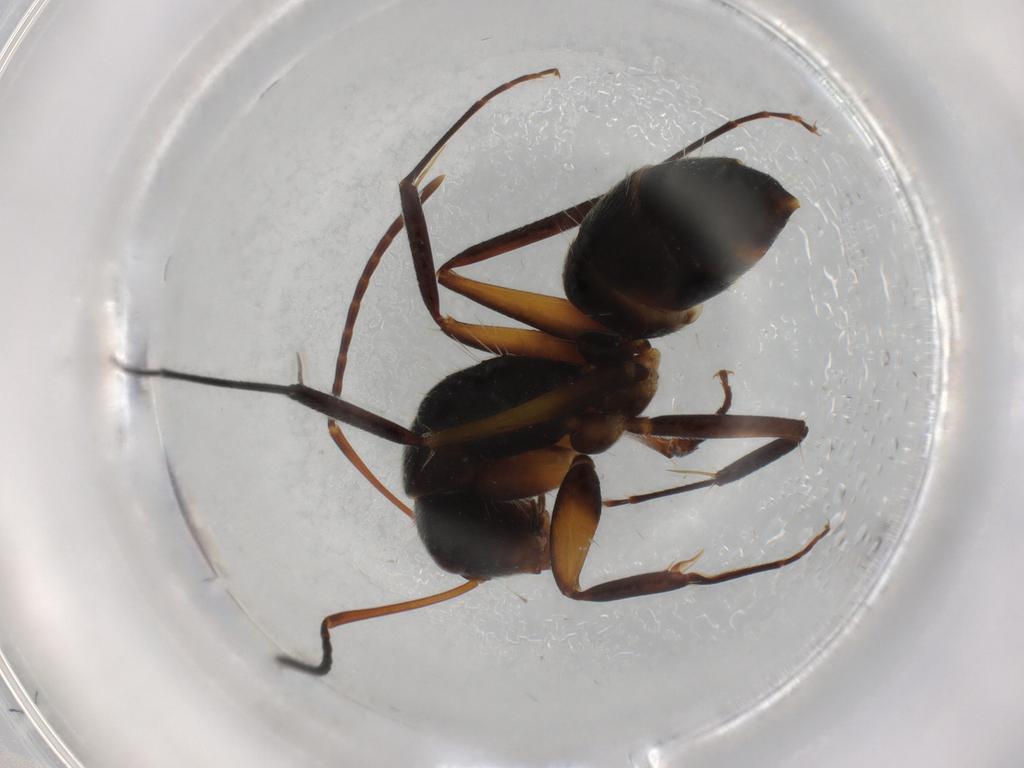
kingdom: Animalia
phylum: Arthropoda
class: Insecta
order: Hymenoptera
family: Formicidae
